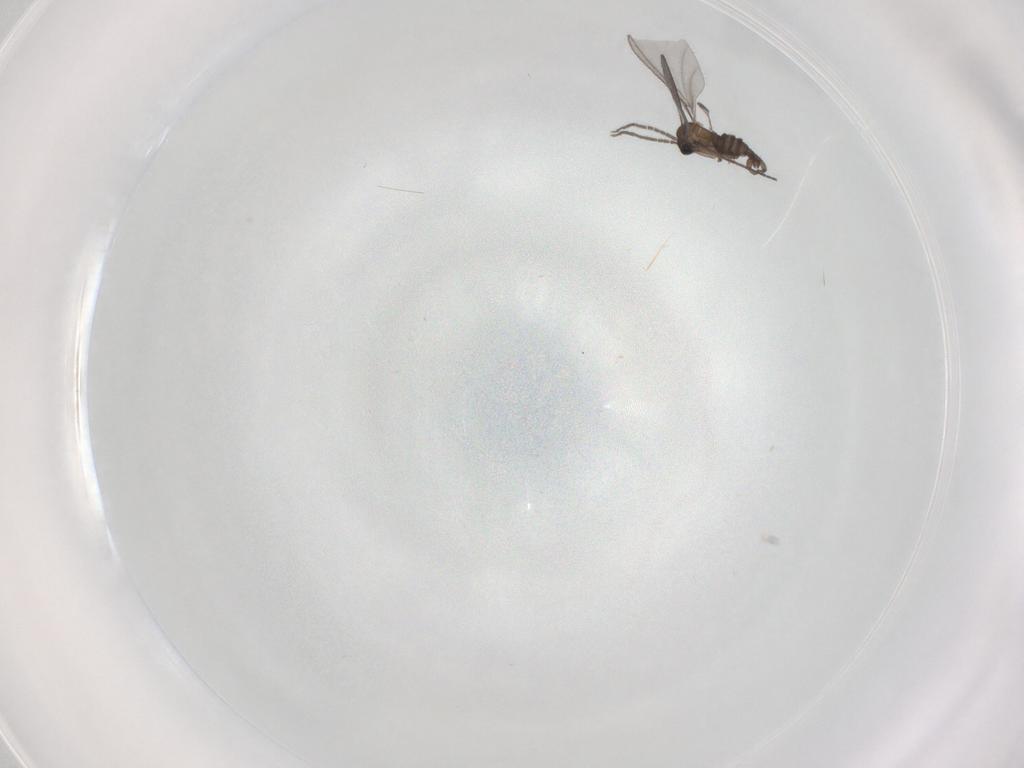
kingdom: Animalia
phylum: Arthropoda
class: Insecta
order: Diptera
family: Sciaridae
